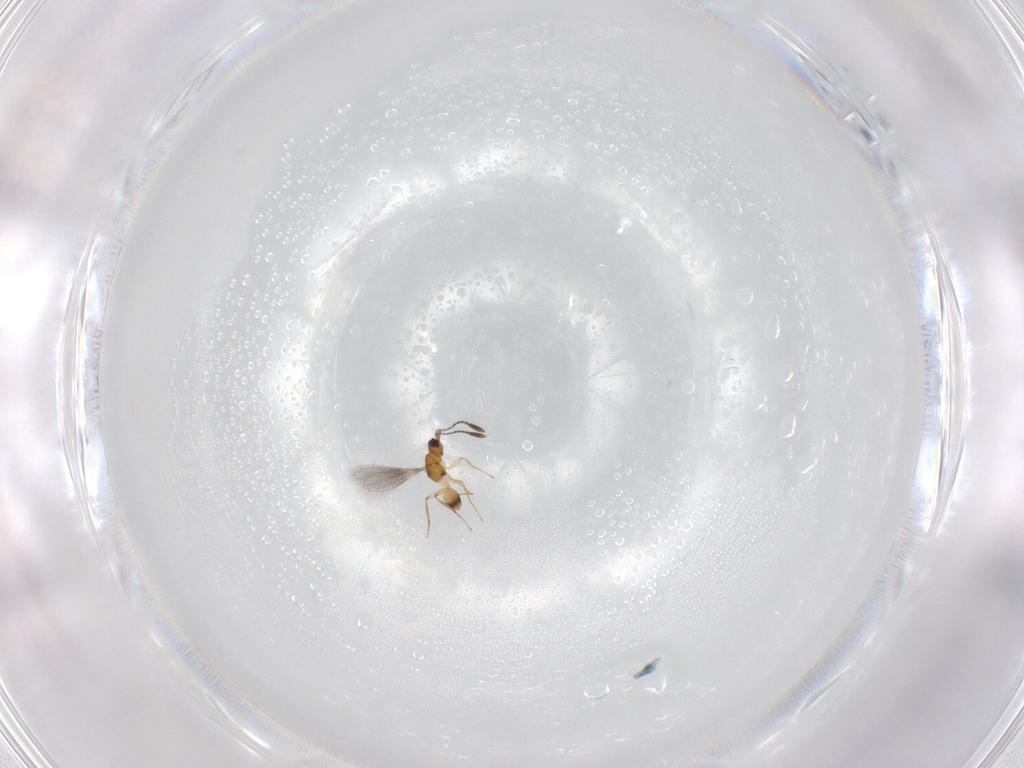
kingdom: Animalia
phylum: Arthropoda
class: Insecta
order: Hymenoptera
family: Mymaridae
